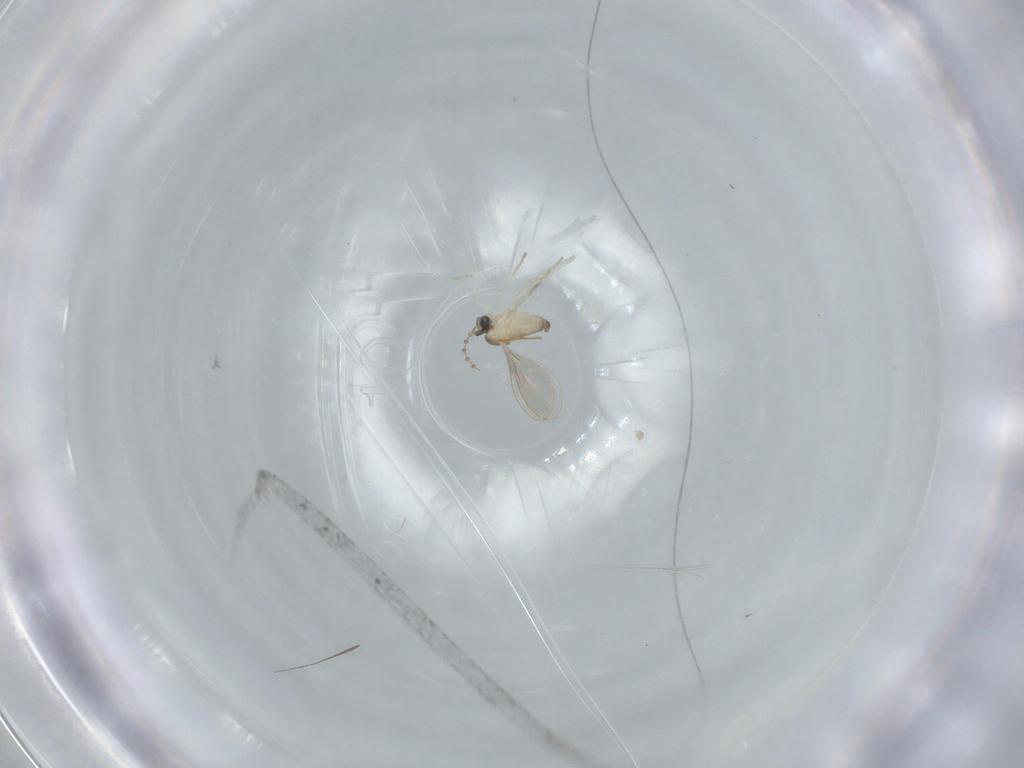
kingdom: Animalia
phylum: Arthropoda
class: Insecta
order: Diptera
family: Cecidomyiidae
